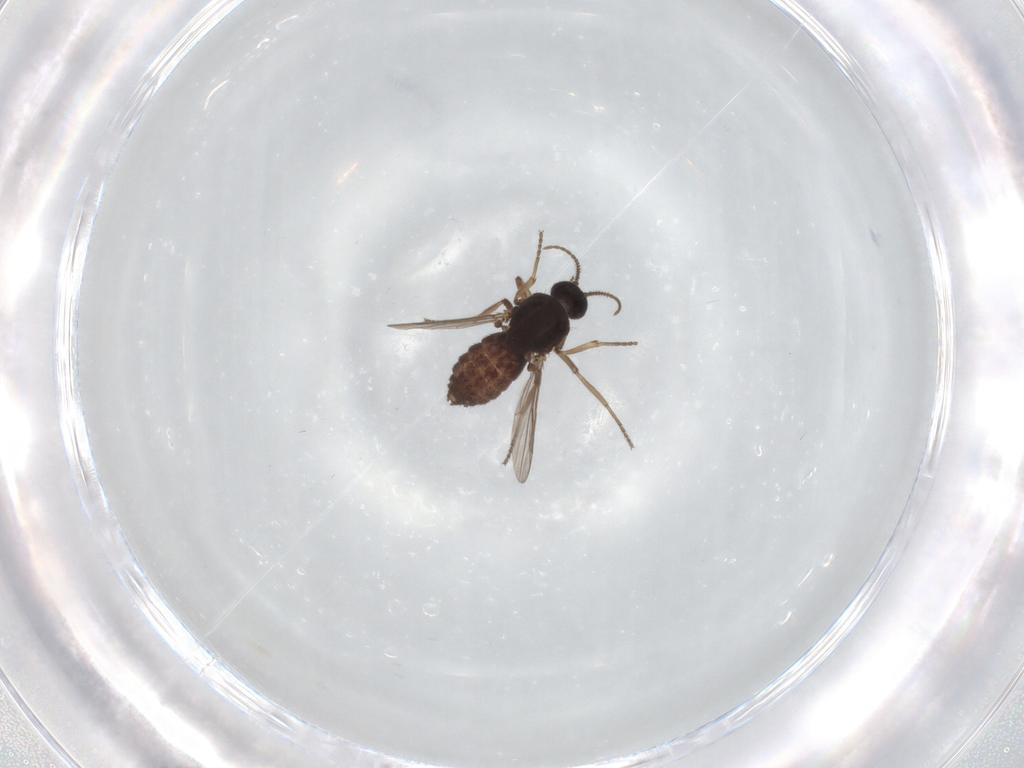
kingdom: Animalia
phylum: Arthropoda
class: Insecta
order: Diptera
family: Ceratopogonidae
